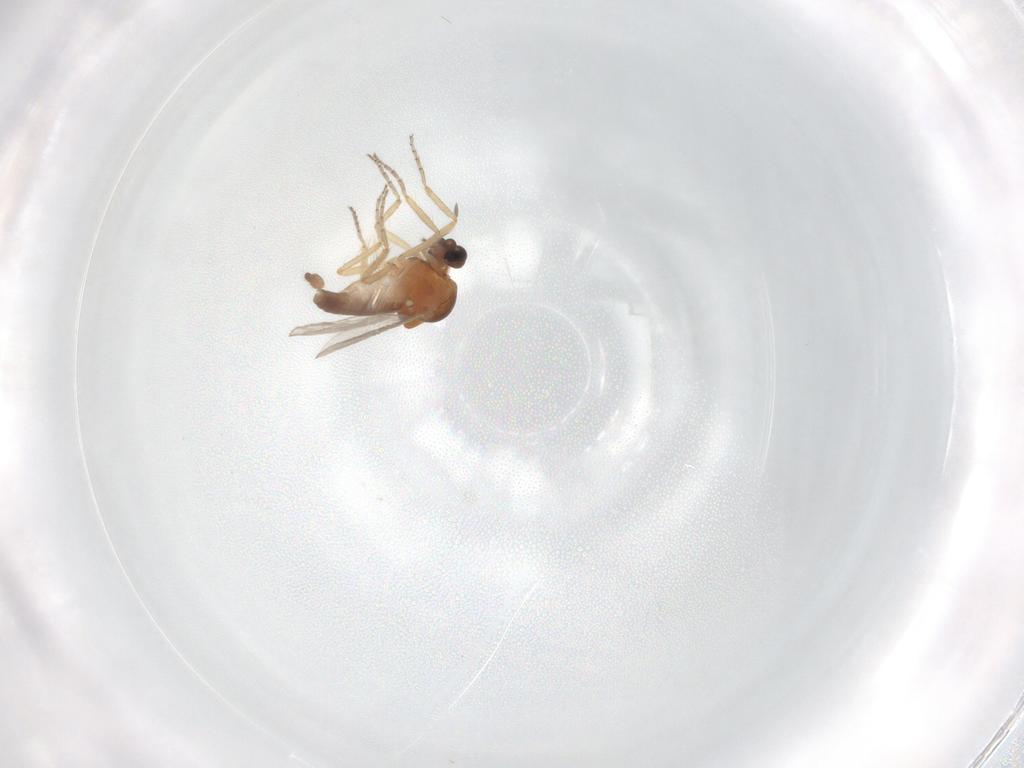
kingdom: Animalia
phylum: Arthropoda
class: Insecta
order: Diptera
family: Ceratopogonidae
